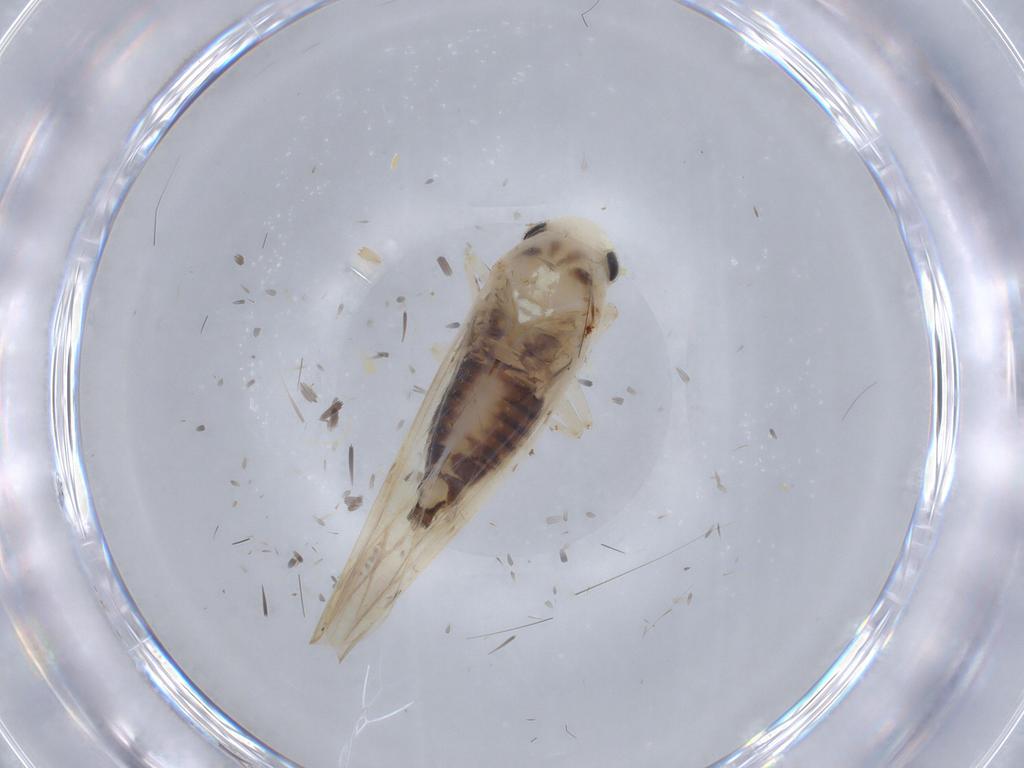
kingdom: Animalia
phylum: Arthropoda
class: Insecta
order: Hemiptera
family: Cicadellidae
